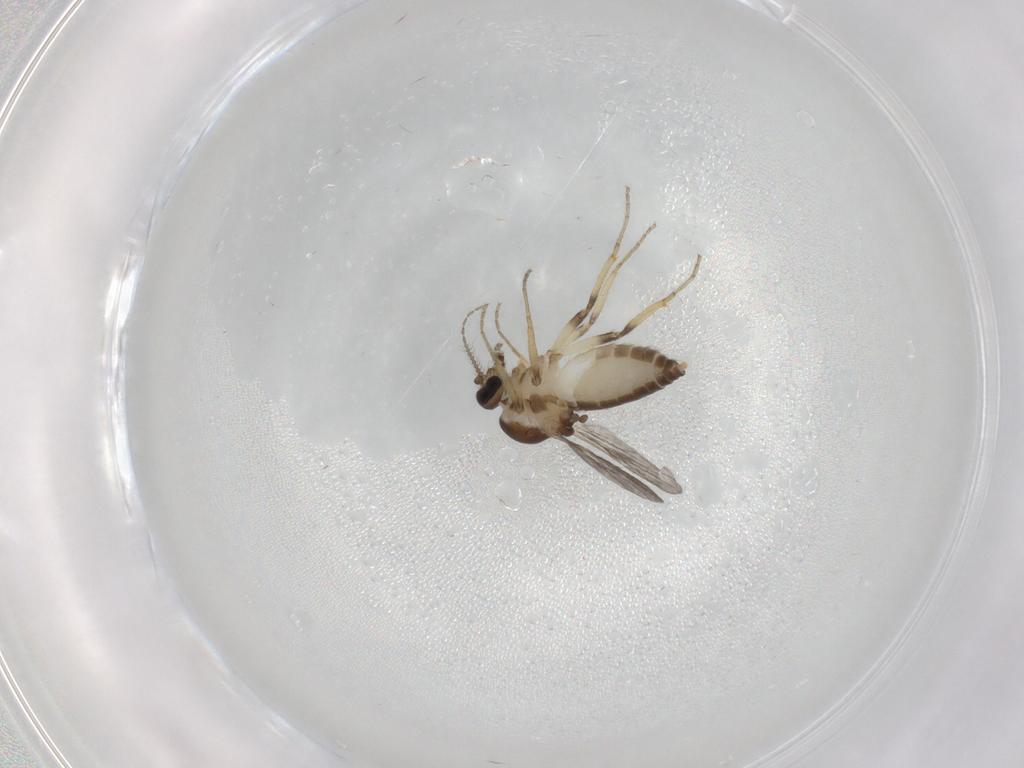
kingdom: Animalia
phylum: Arthropoda
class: Insecta
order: Diptera
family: Ceratopogonidae
